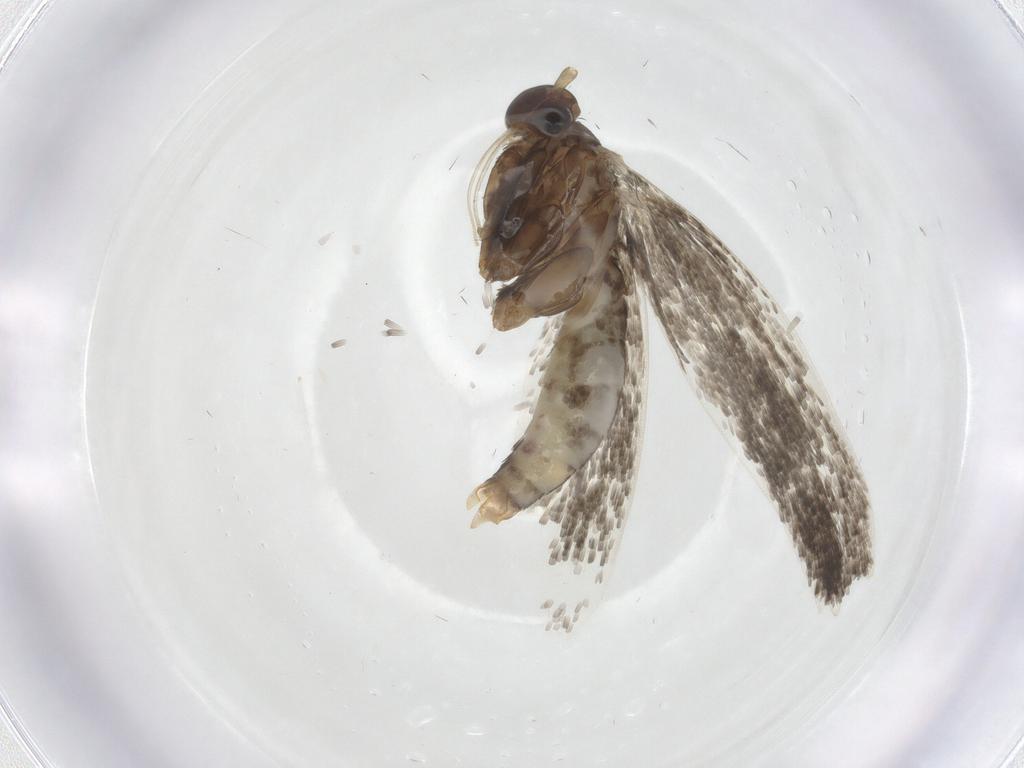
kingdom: Animalia
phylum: Arthropoda
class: Insecta
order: Lepidoptera
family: Erebidae
